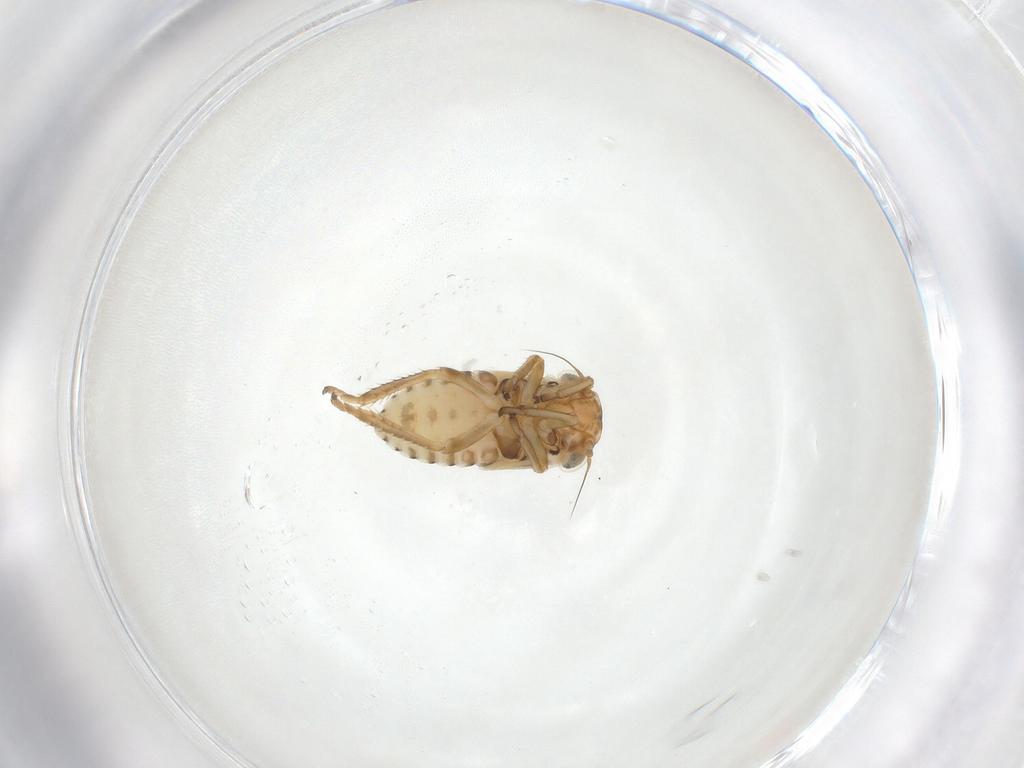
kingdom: Animalia
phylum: Arthropoda
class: Insecta
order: Hemiptera
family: Cicadellidae
